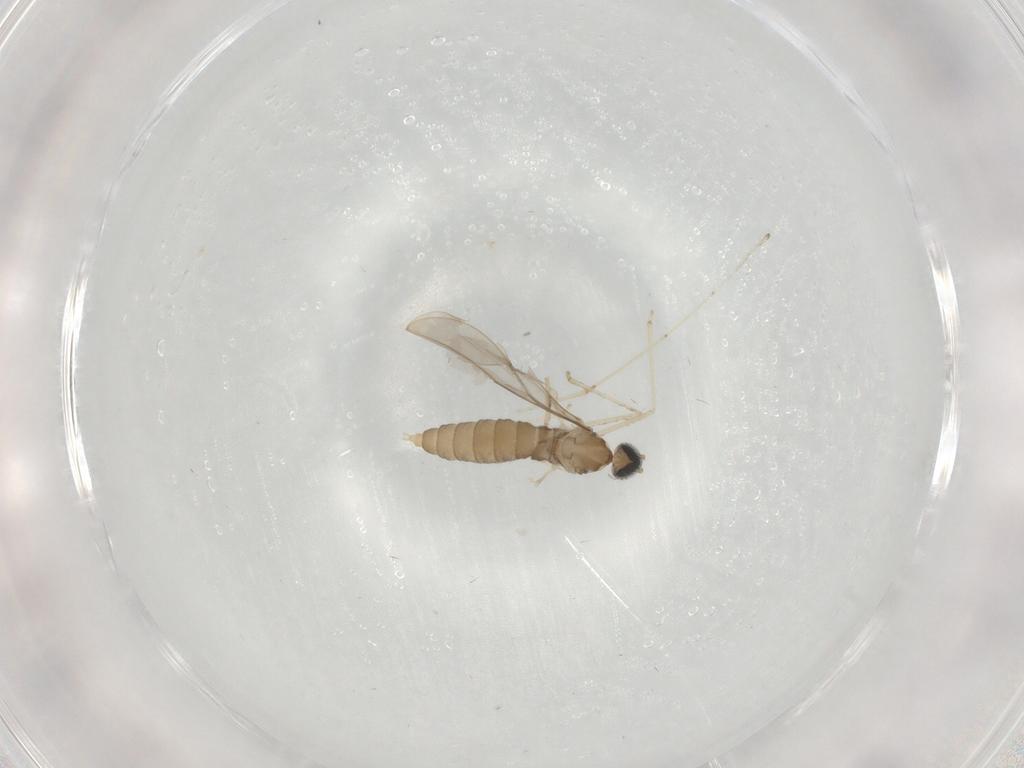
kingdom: Animalia
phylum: Arthropoda
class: Insecta
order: Diptera
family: Cecidomyiidae
